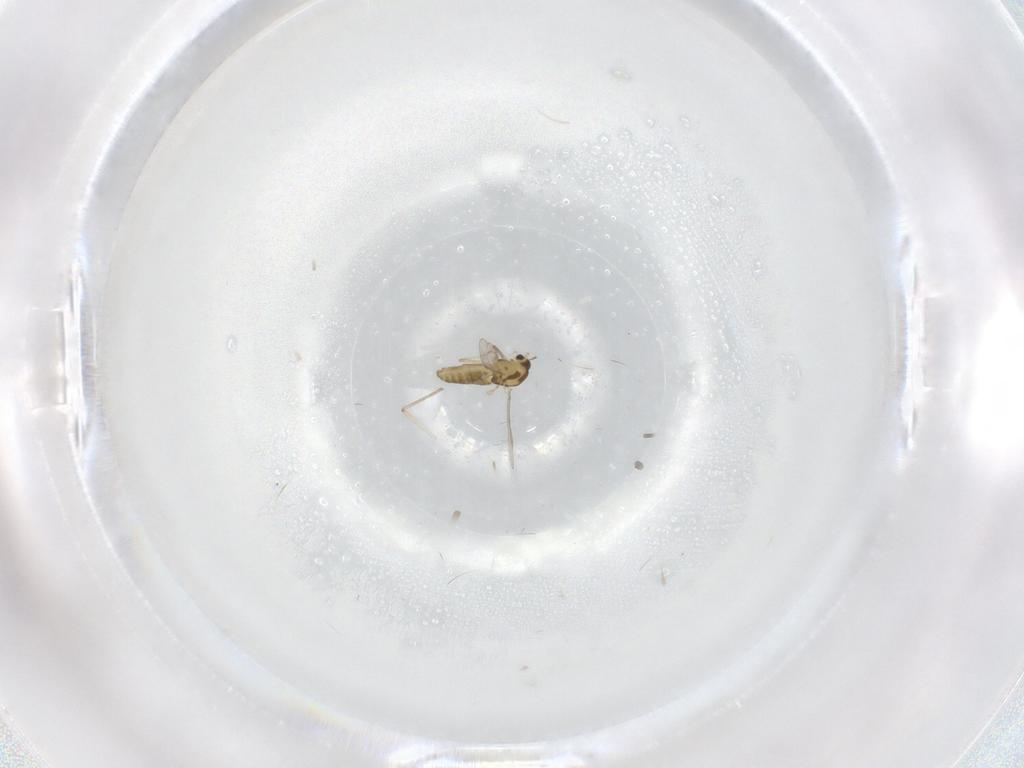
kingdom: Animalia
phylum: Arthropoda
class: Insecta
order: Diptera
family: Chironomidae
